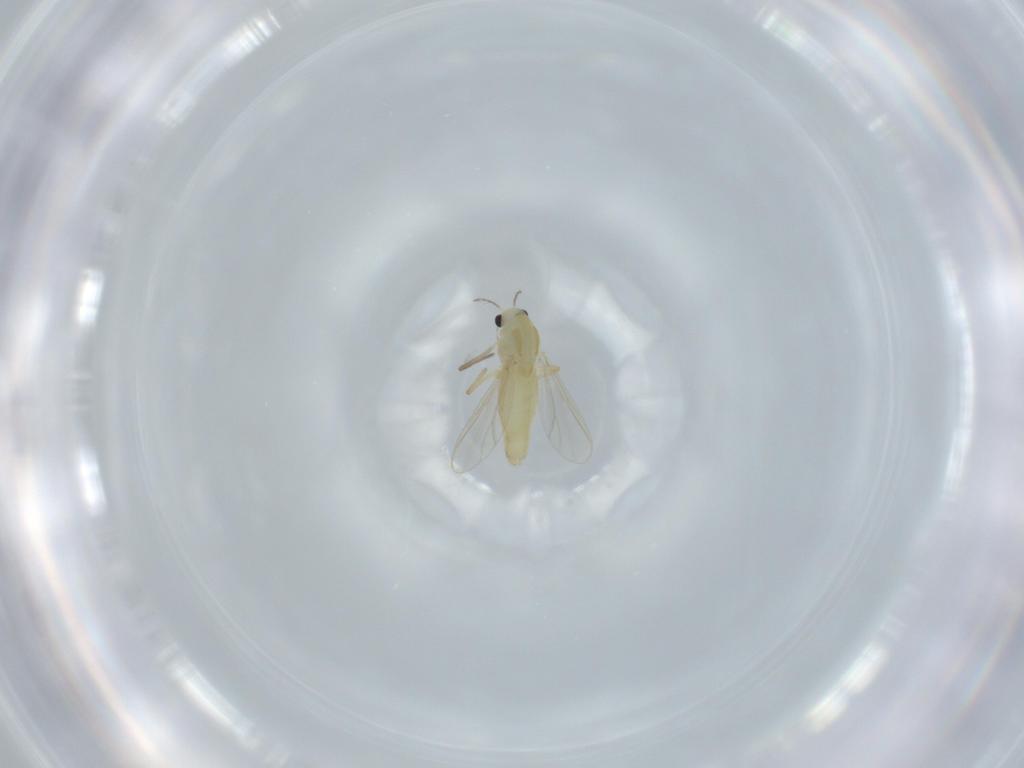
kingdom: Animalia
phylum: Arthropoda
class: Insecta
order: Diptera
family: Chironomidae
